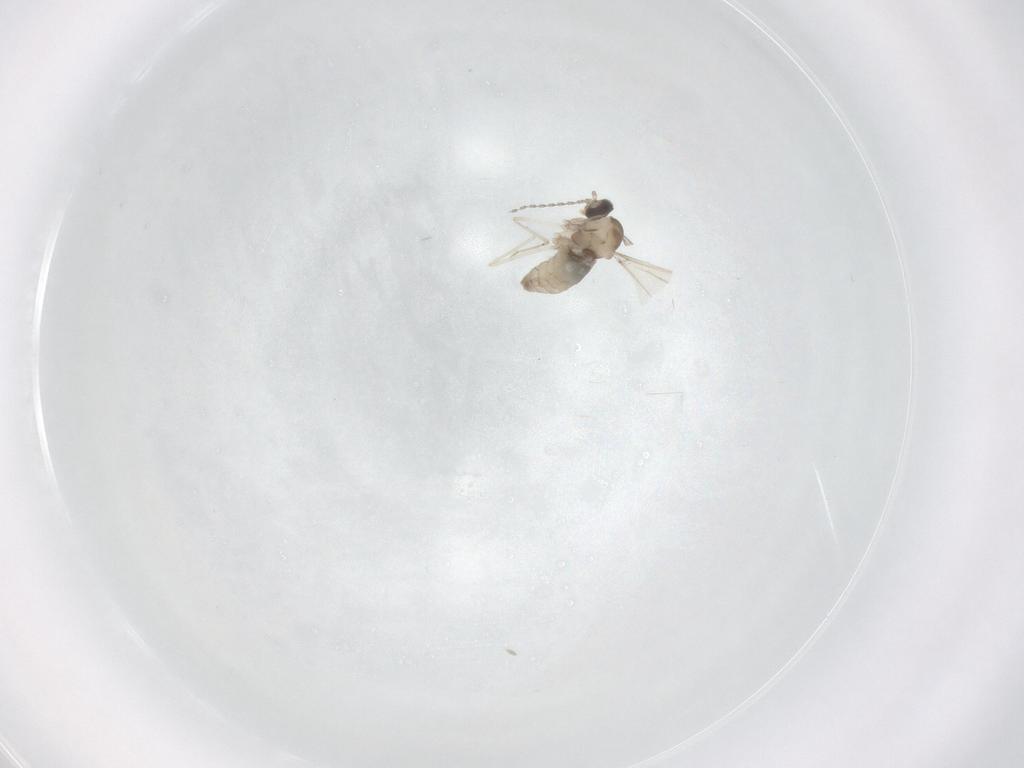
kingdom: Animalia
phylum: Arthropoda
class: Insecta
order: Diptera
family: Cecidomyiidae
